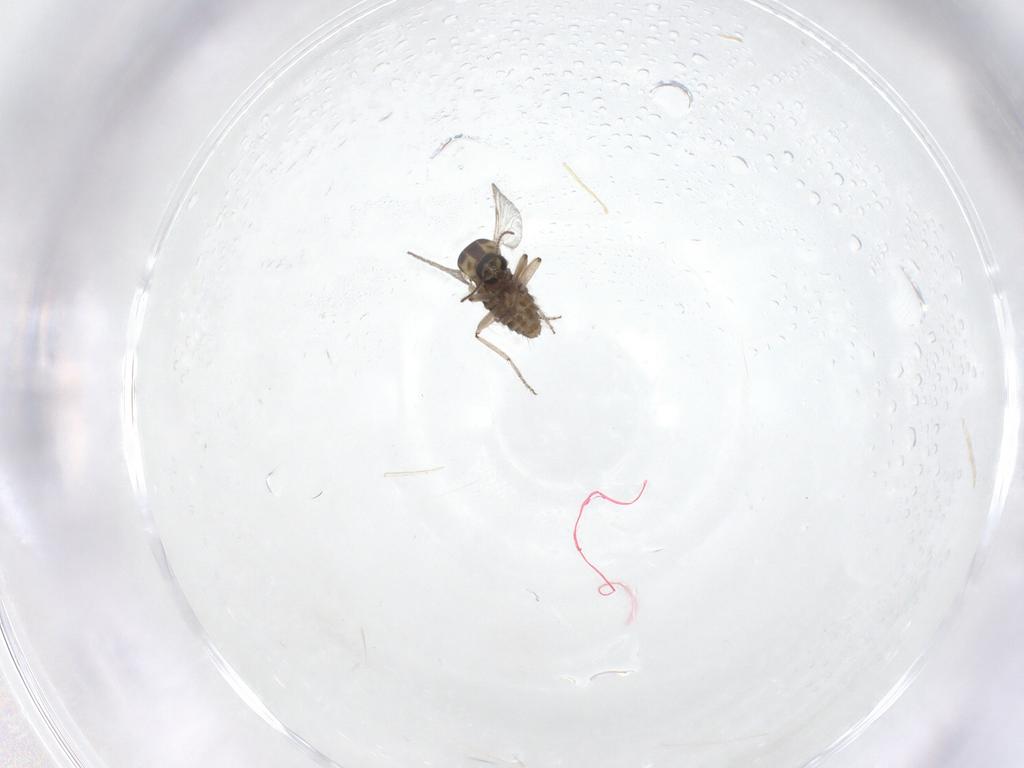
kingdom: Animalia
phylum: Arthropoda
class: Insecta
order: Diptera
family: Ceratopogonidae
